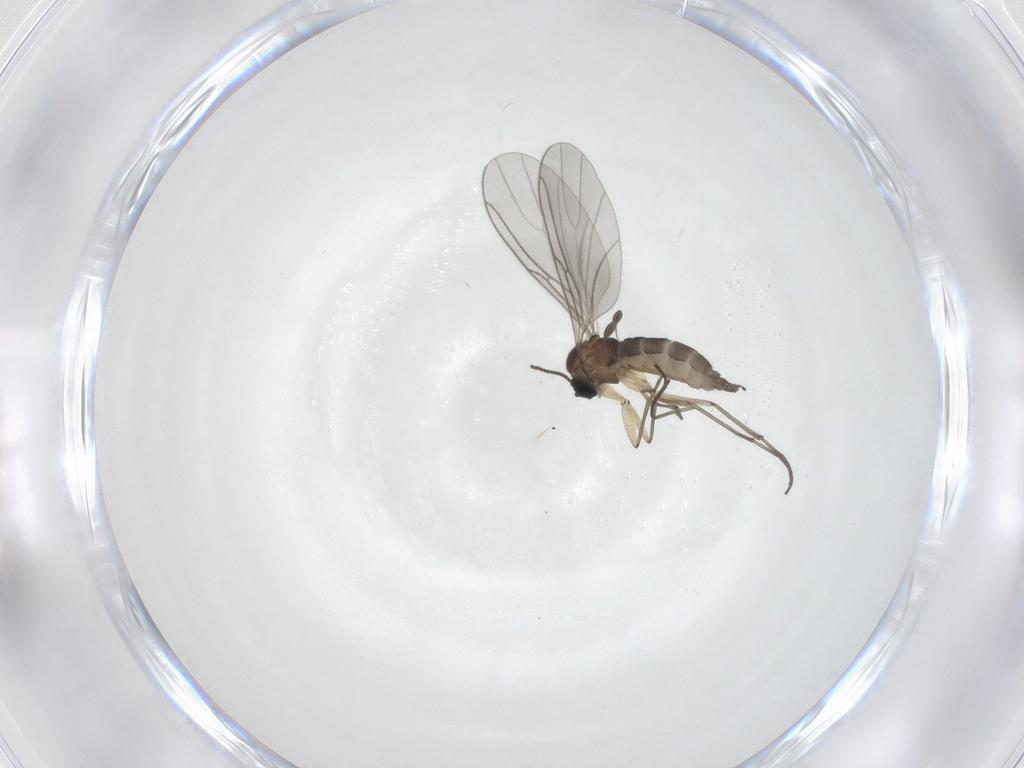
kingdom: Animalia
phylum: Arthropoda
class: Insecta
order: Diptera
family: Sciaridae
